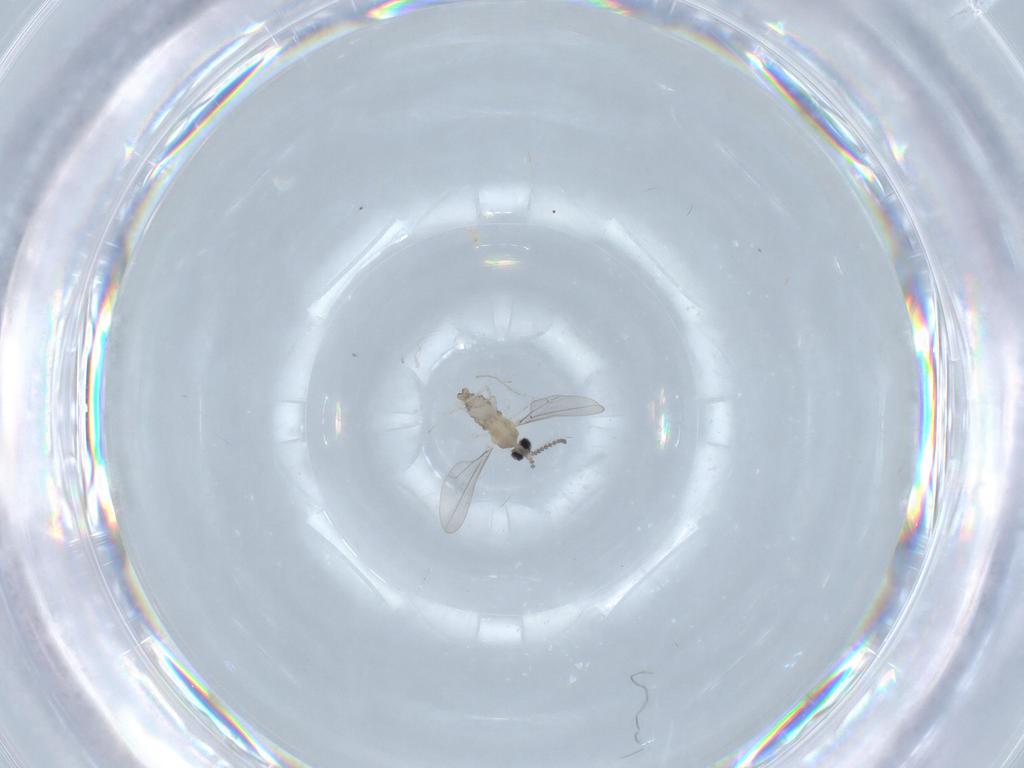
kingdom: Animalia
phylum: Arthropoda
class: Insecta
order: Diptera
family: Cecidomyiidae
